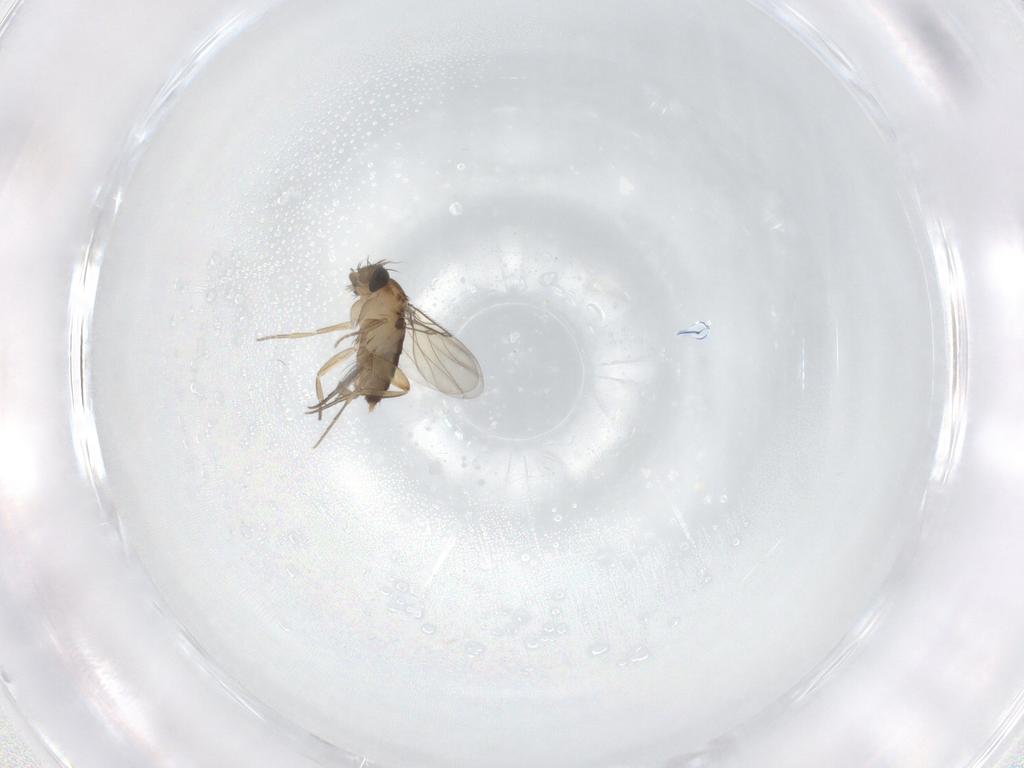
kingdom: Animalia
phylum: Arthropoda
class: Insecta
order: Diptera
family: Phoridae
